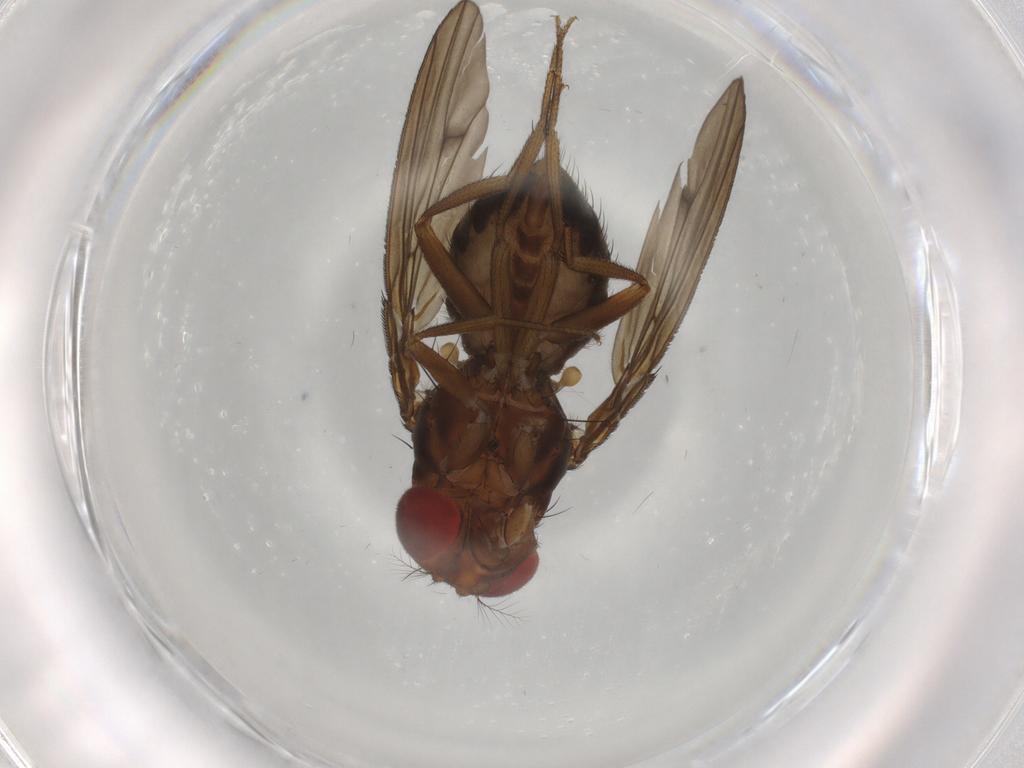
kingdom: Animalia
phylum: Arthropoda
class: Insecta
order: Diptera
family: Drosophilidae
